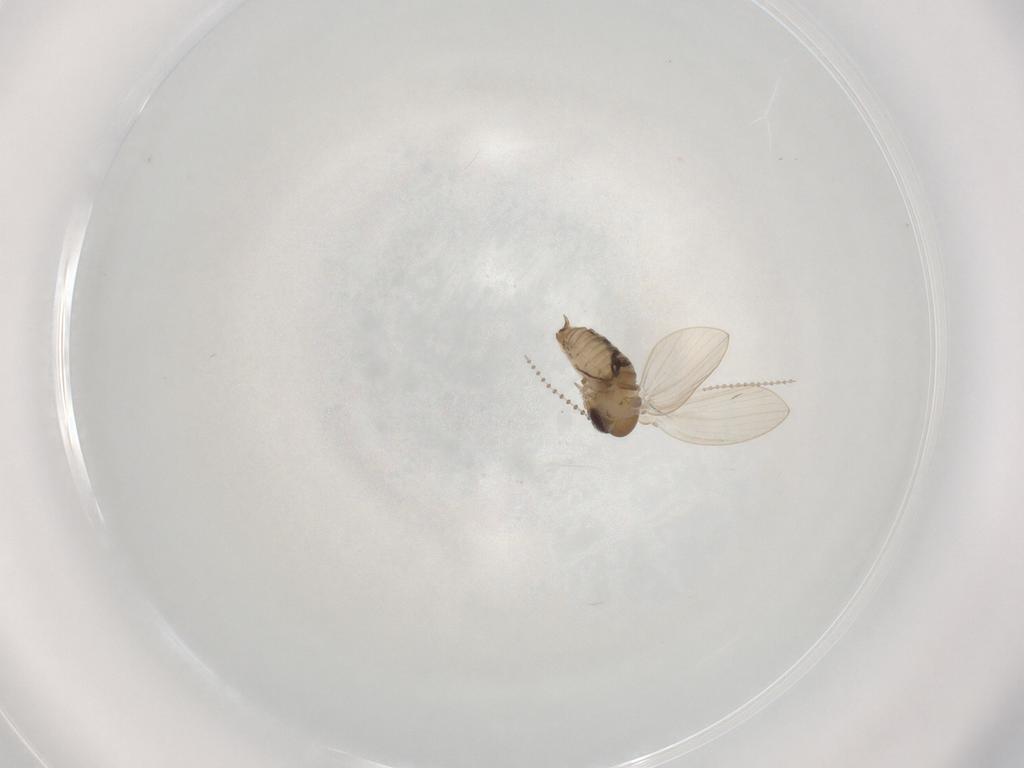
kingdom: Animalia
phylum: Arthropoda
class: Insecta
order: Diptera
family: Psychodidae
